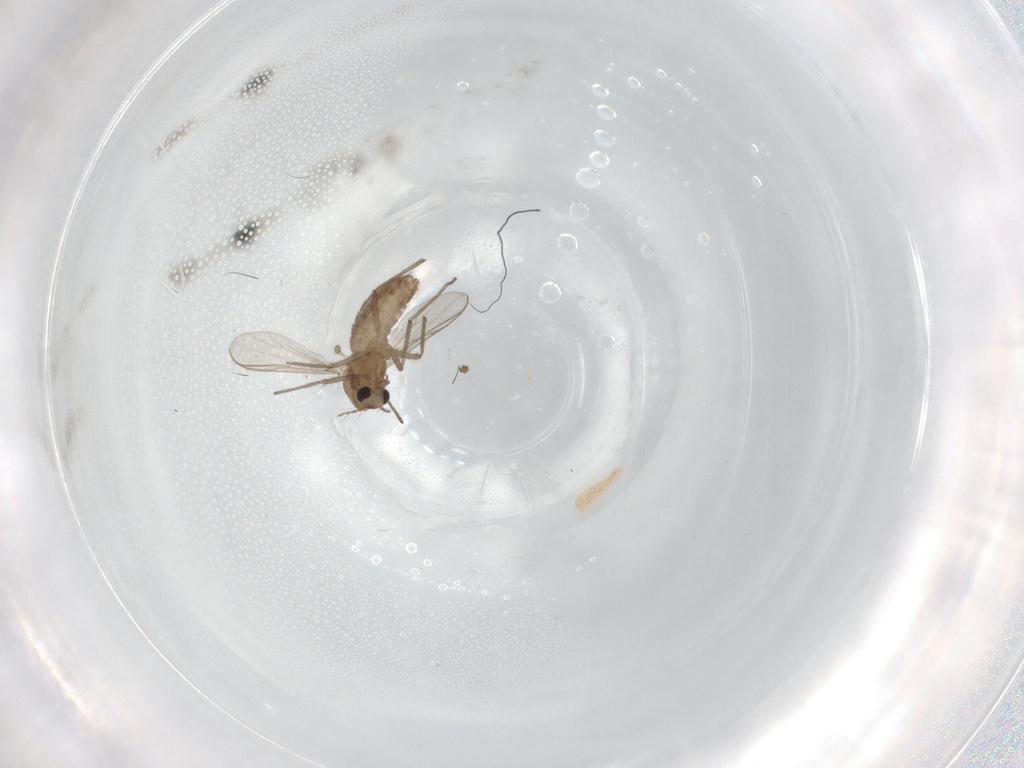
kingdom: Animalia
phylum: Arthropoda
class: Insecta
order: Diptera
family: Chironomidae
